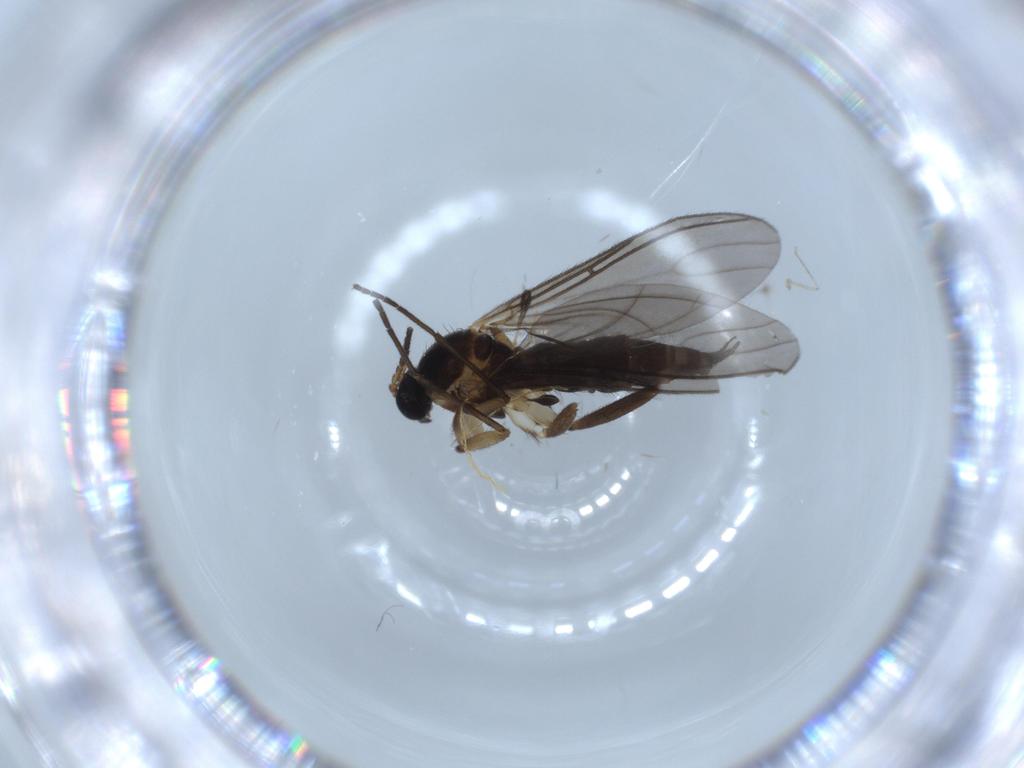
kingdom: Animalia
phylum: Arthropoda
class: Insecta
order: Diptera
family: Sciaridae
